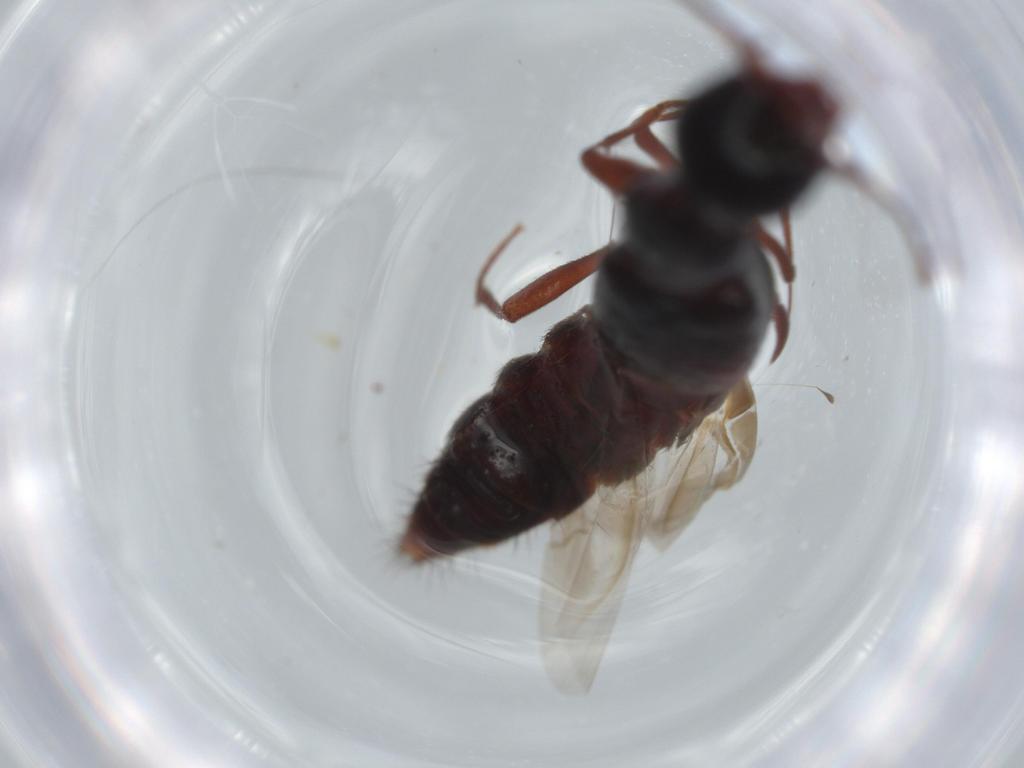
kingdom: Animalia
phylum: Arthropoda
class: Insecta
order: Coleoptera
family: Staphylinidae
